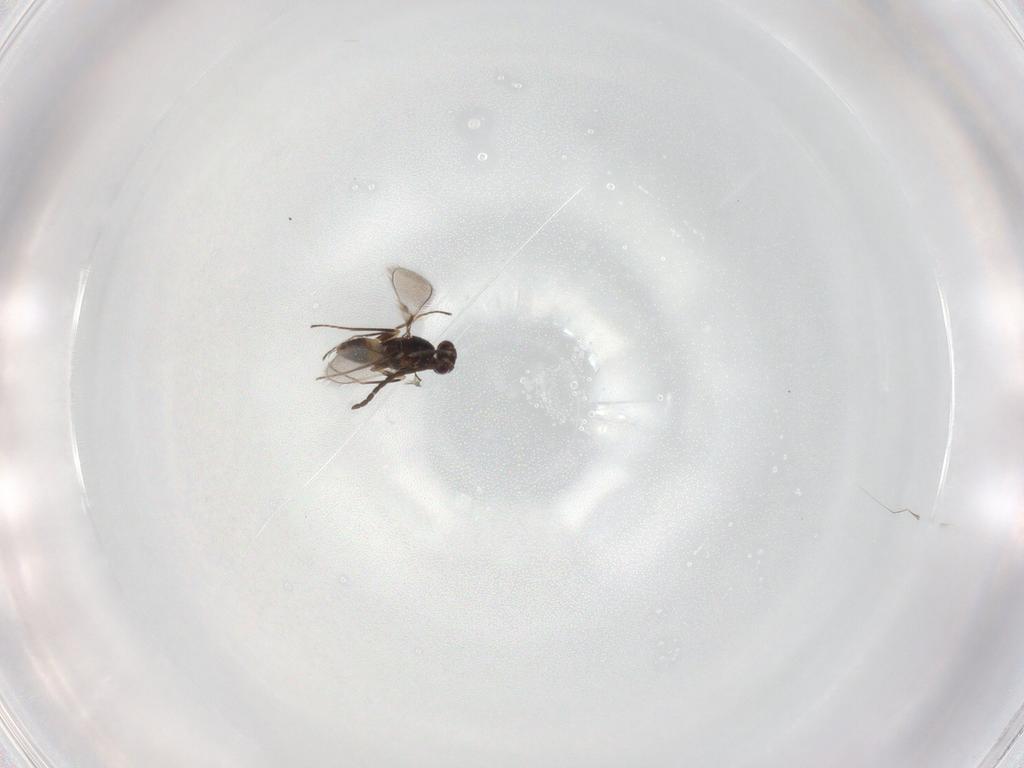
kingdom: Animalia
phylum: Arthropoda
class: Insecta
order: Hymenoptera
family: Mymaridae
